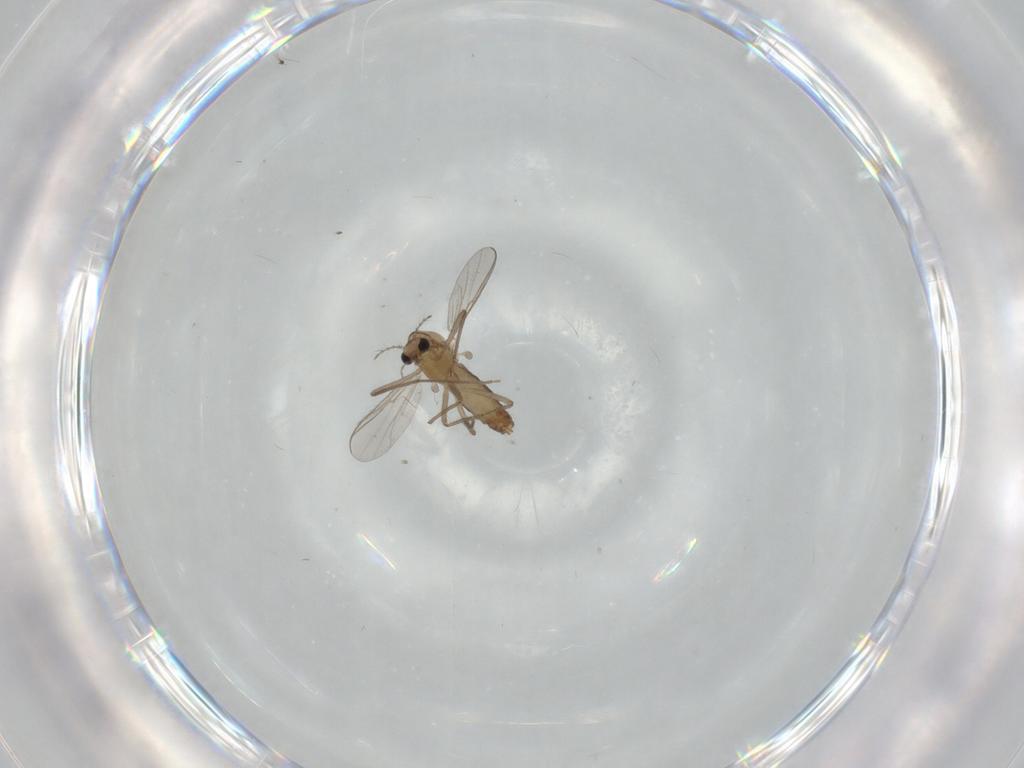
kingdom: Animalia
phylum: Arthropoda
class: Insecta
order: Diptera
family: Chironomidae
